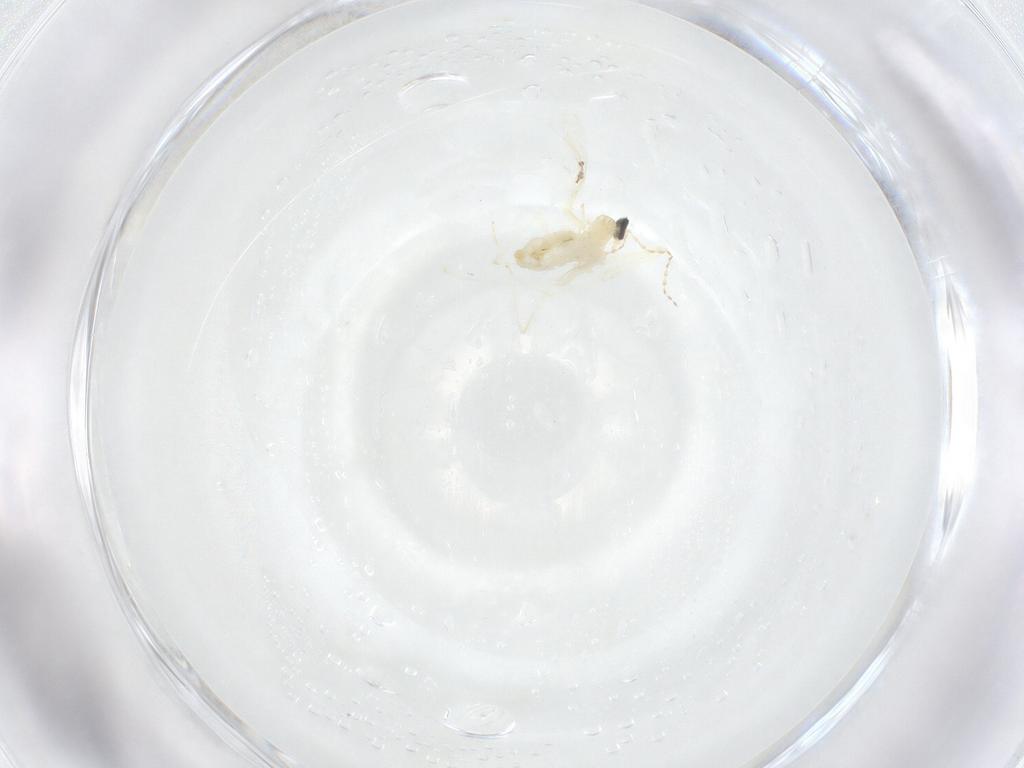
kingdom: Animalia
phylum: Arthropoda
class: Insecta
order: Diptera
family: Cecidomyiidae
